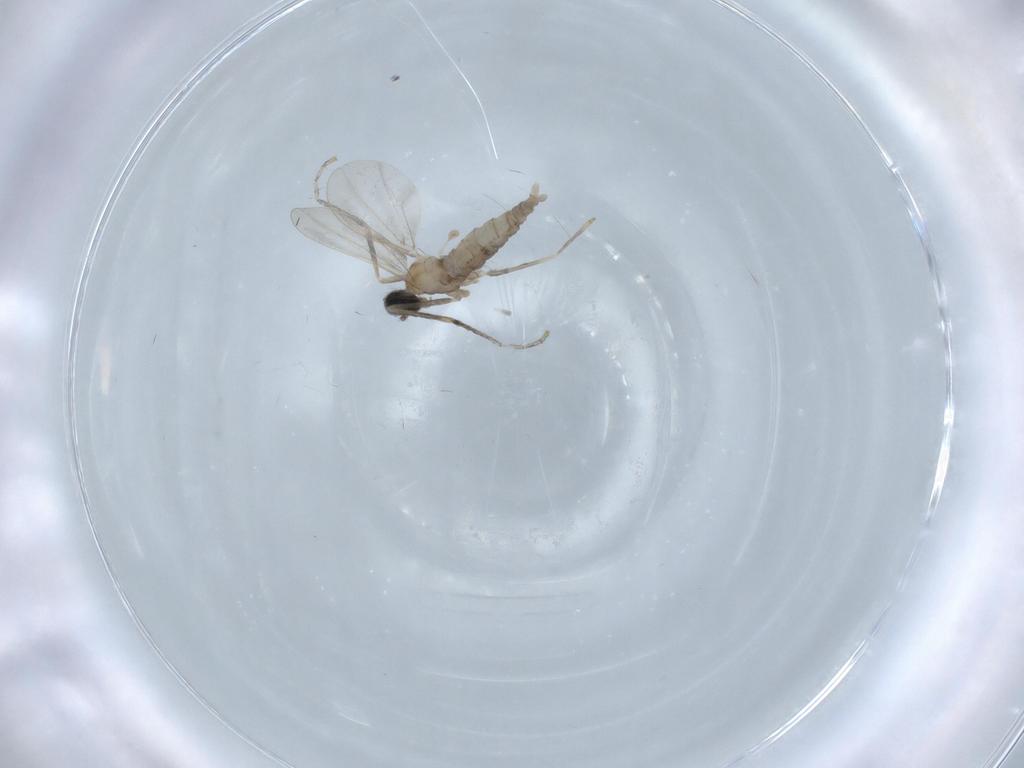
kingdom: Animalia
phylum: Arthropoda
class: Insecta
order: Diptera
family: Cecidomyiidae
